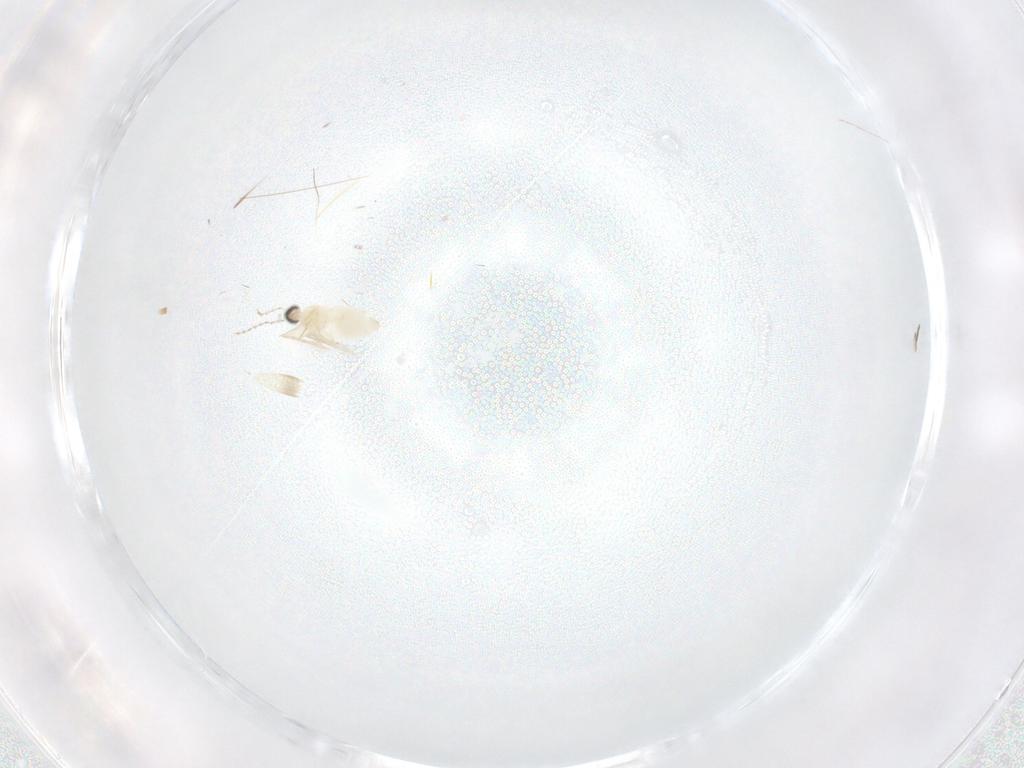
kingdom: Animalia
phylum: Arthropoda
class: Insecta
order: Diptera
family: Cecidomyiidae
